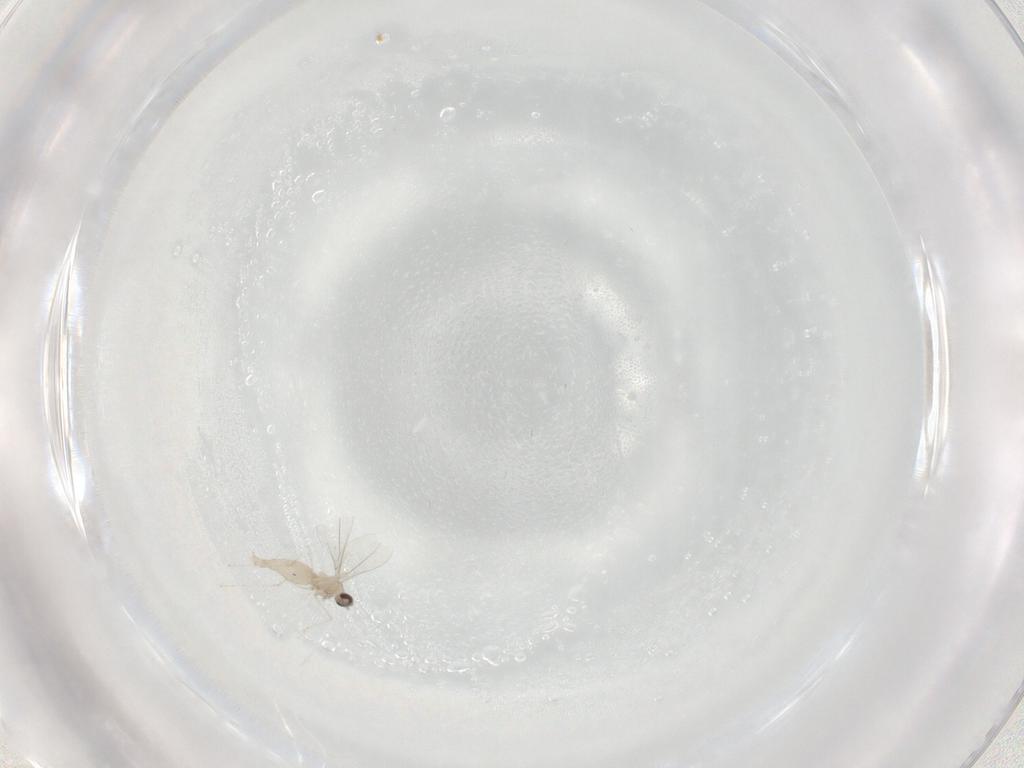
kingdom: Animalia
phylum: Arthropoda
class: Insecta
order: Diptera
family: Cecidomyiidae
